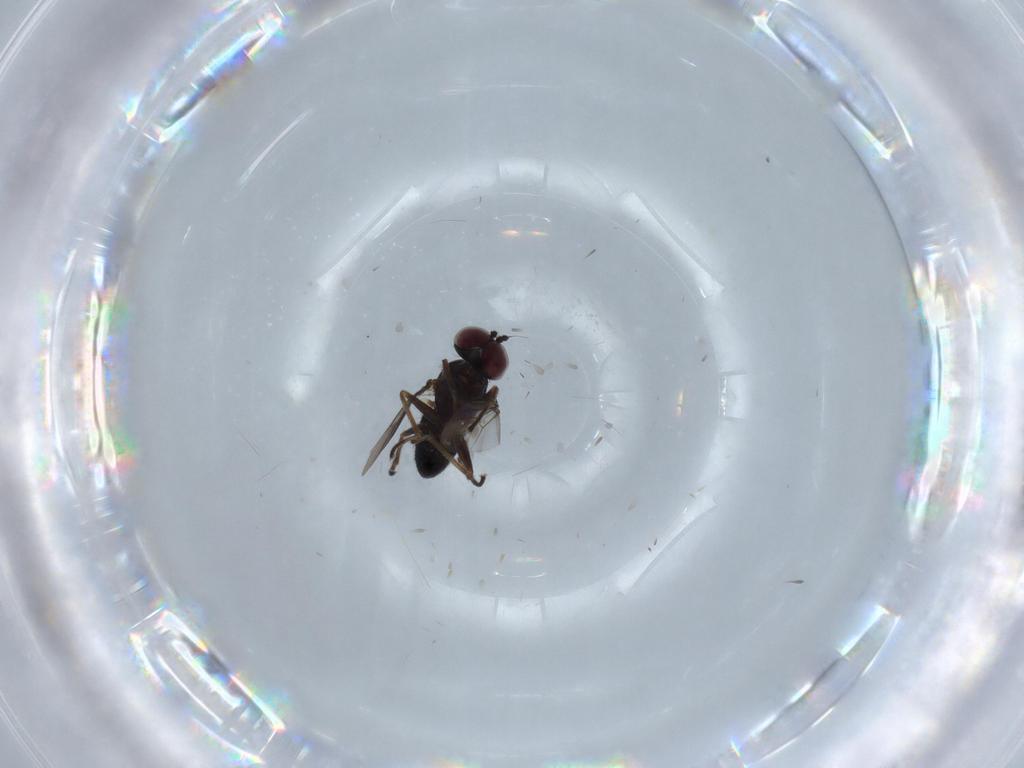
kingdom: Animalia
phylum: Arthropoda
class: Insecta
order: Diptera
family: Dolichopodidae
